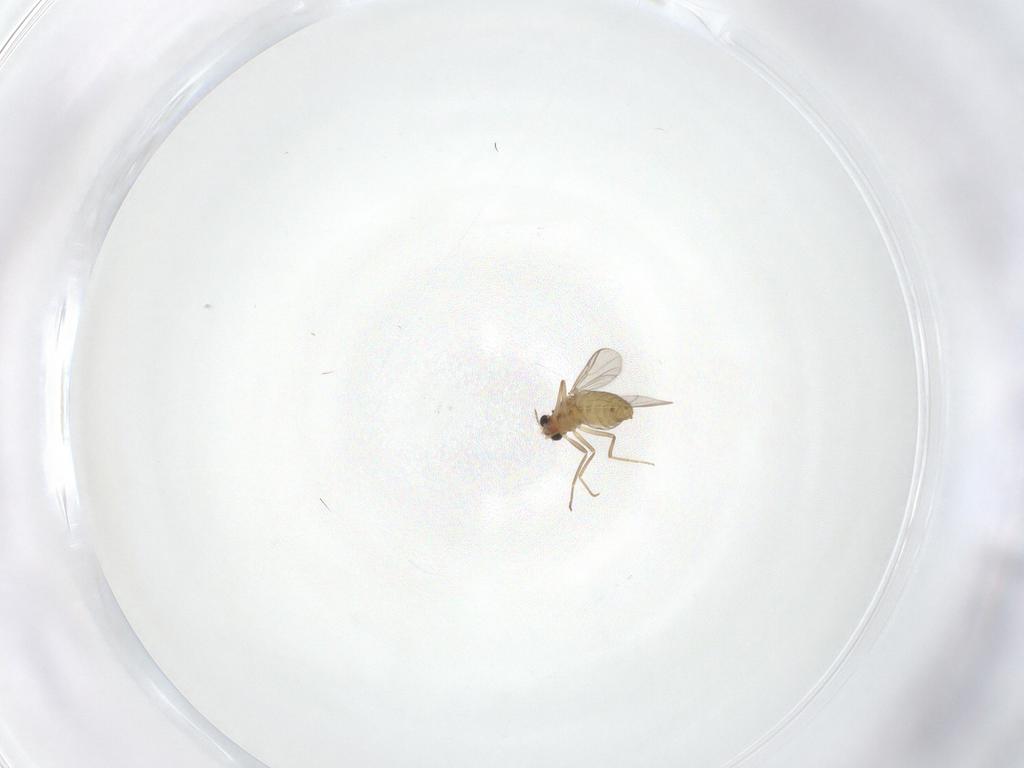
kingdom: Animalia
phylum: Arthropoda
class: Insecta
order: Diptera
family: Chironomidae
